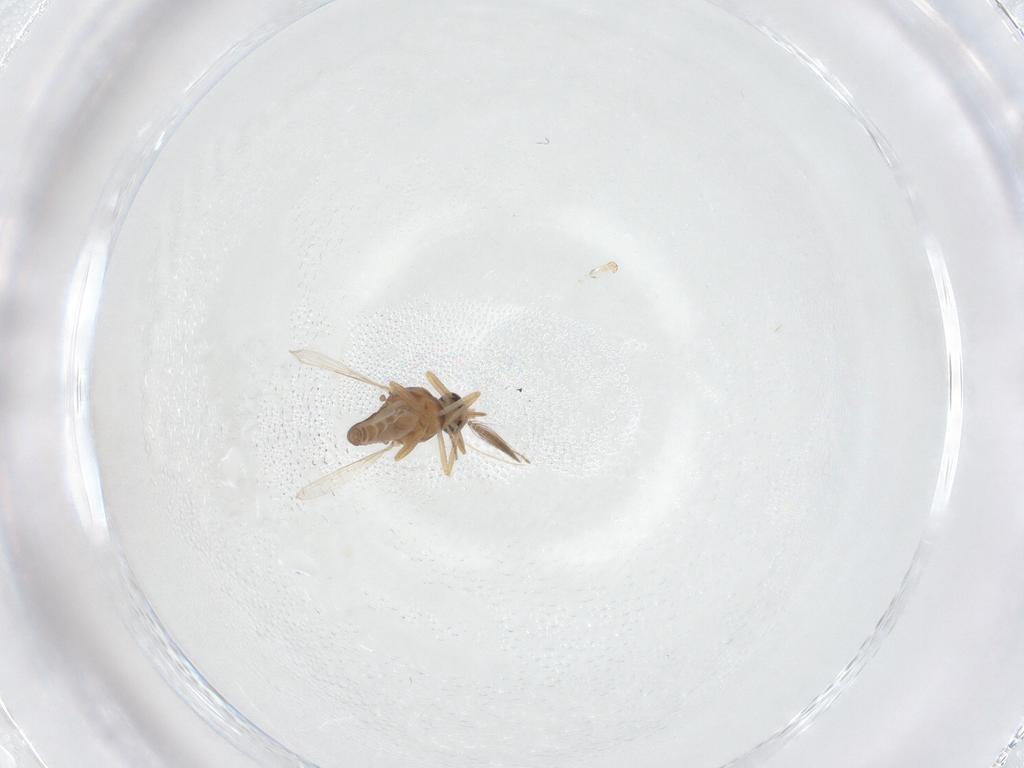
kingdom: Animalia
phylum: Arthropoda
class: Insecta
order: Diptera
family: Ceratopogonidae
